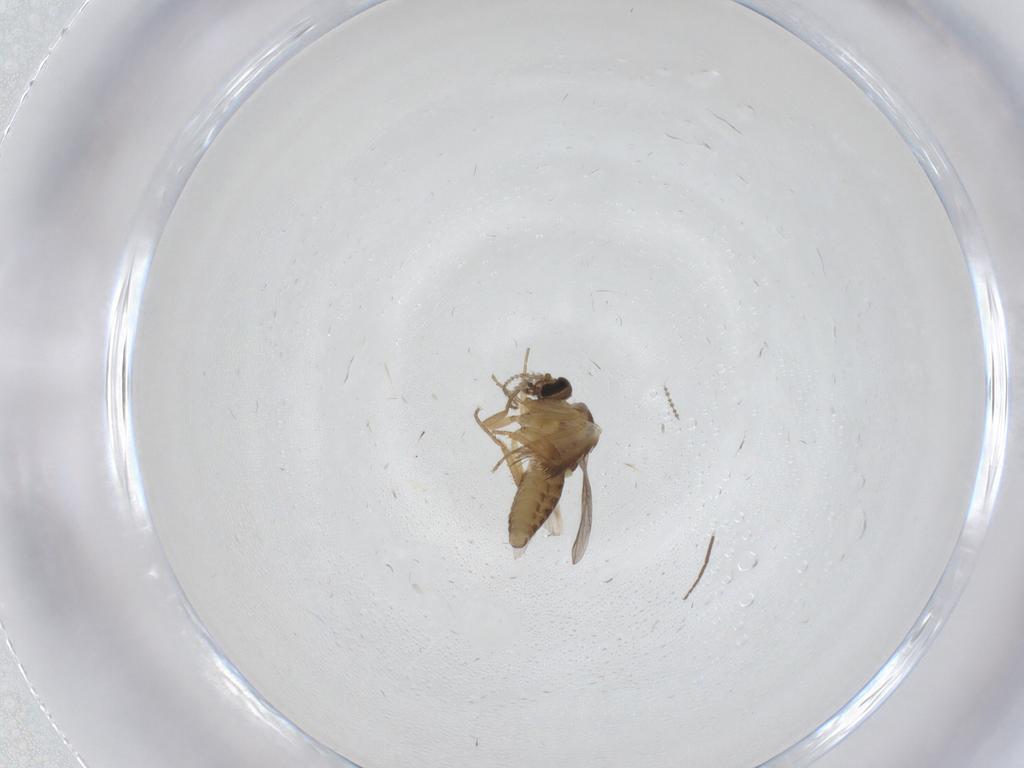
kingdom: Animalia
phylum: Arthropoda
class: Insecta
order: Diptera
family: Ceratopogonidae
